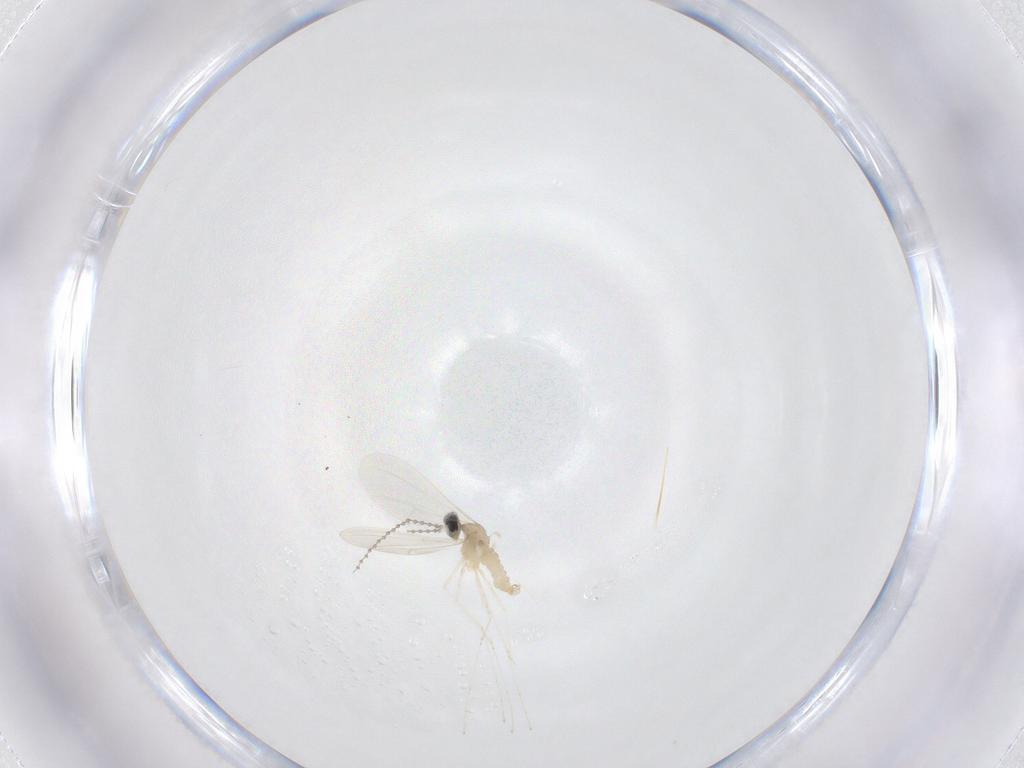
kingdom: Animalia
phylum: Arthropoda
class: Insecta
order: Diptera
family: Cecidomyiidae
